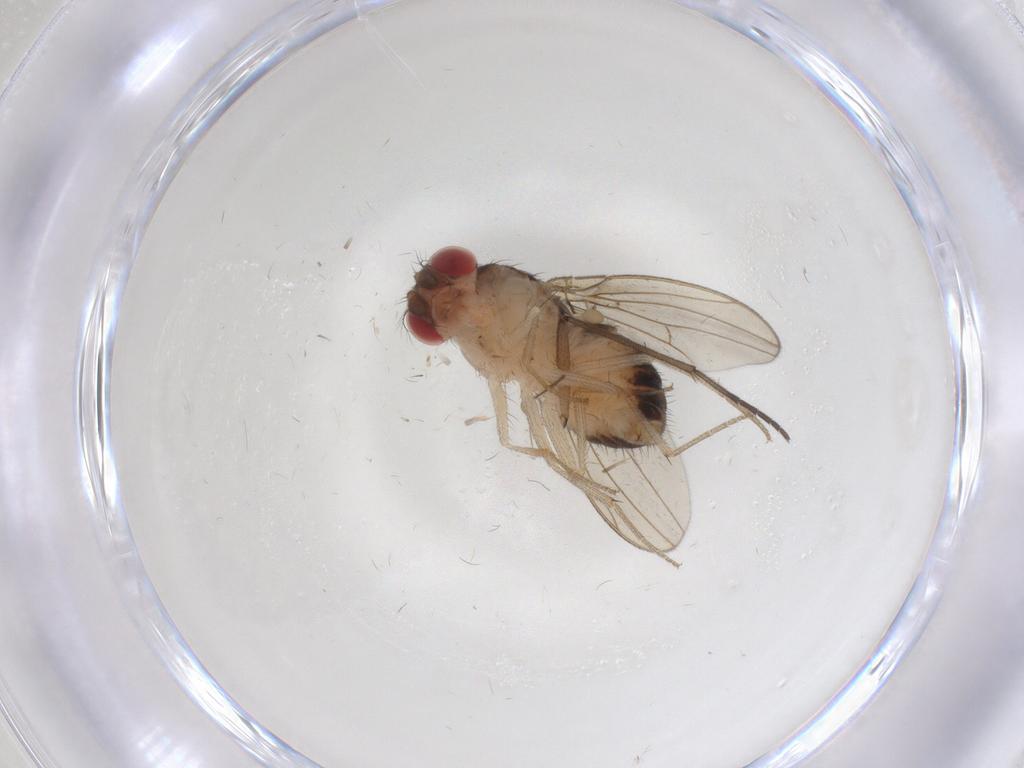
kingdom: Animalia
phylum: Arthropoda
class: Insecta
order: Diptera
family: Drosophilidae
